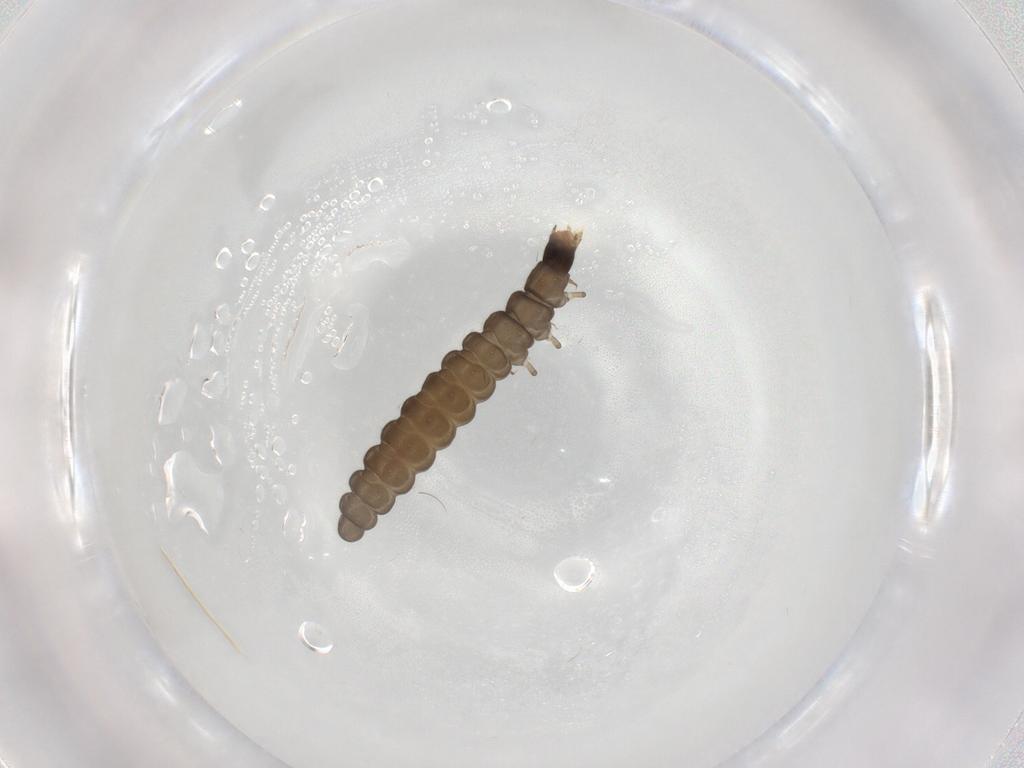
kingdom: Animalia
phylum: Arthropoda
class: Insecta
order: Coleoptera
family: Cantharidae
